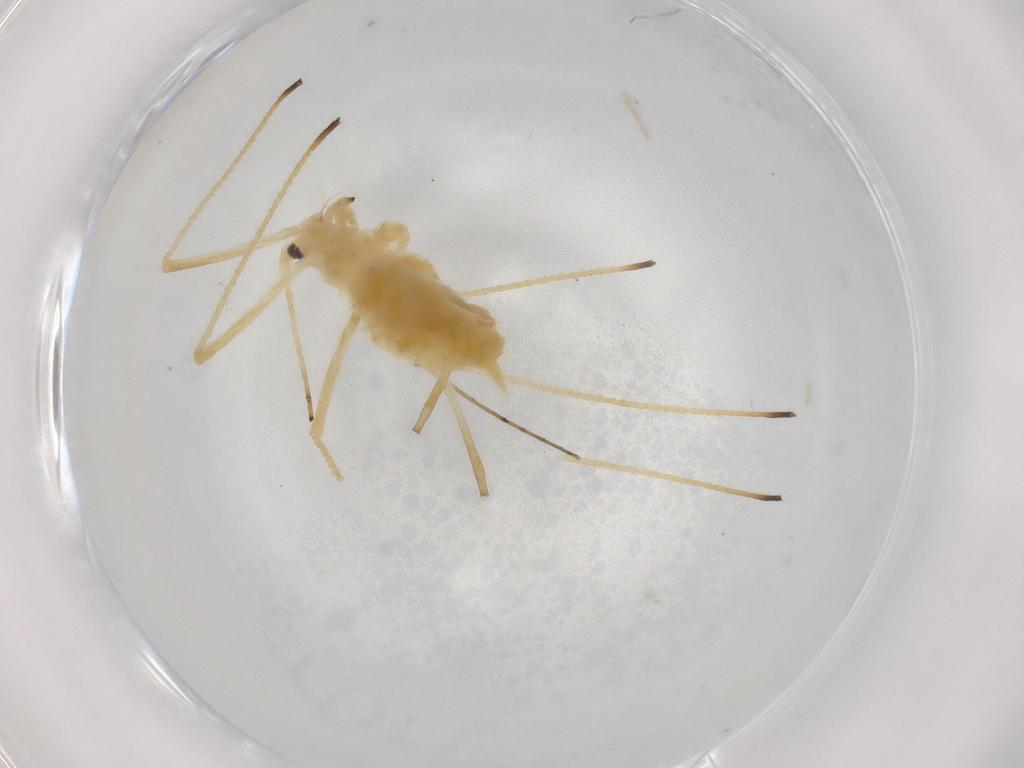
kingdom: Animalia
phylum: Arthropoda
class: Insecta
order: Hemiptera
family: Aphididae
